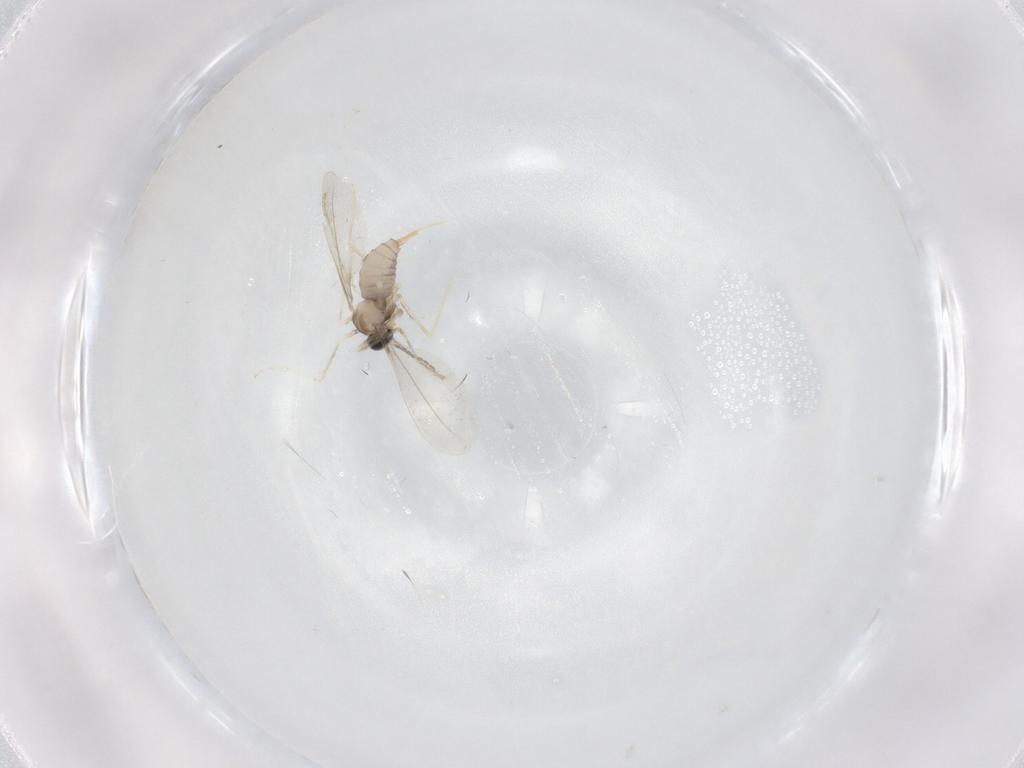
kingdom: Animalia
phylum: Arthropoda
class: Insecta
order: Diptera
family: Cecidomyiidae
